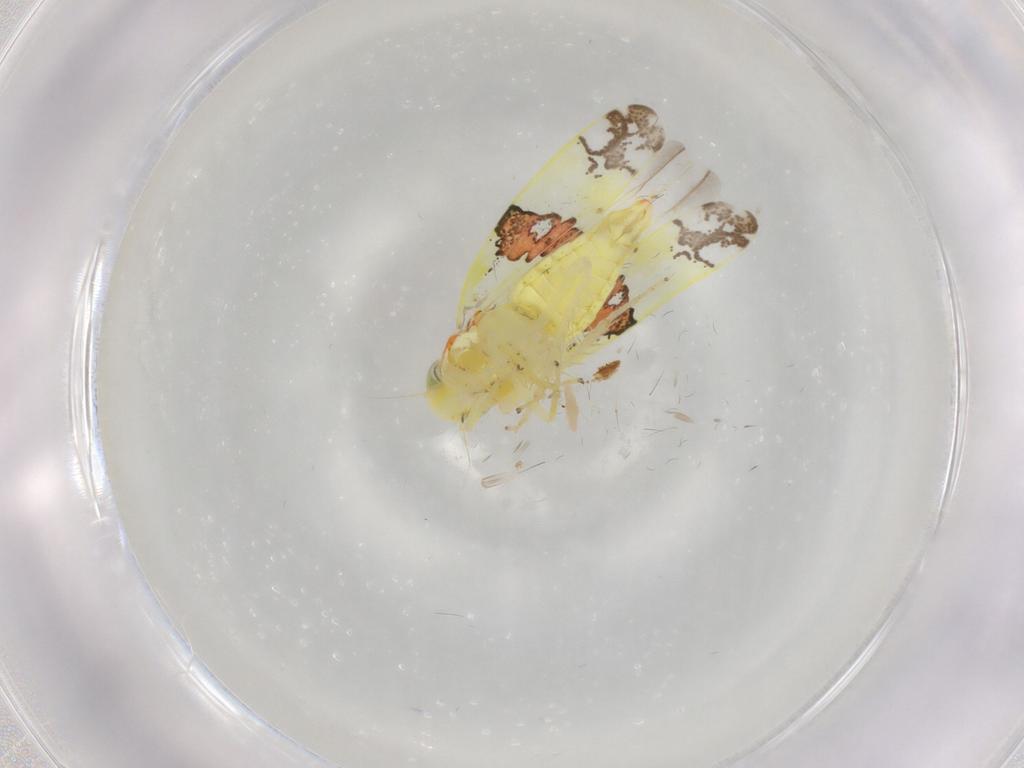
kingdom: Animalia
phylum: Arthropoda
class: Insecta
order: Hemiptera
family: Cicadellidae
